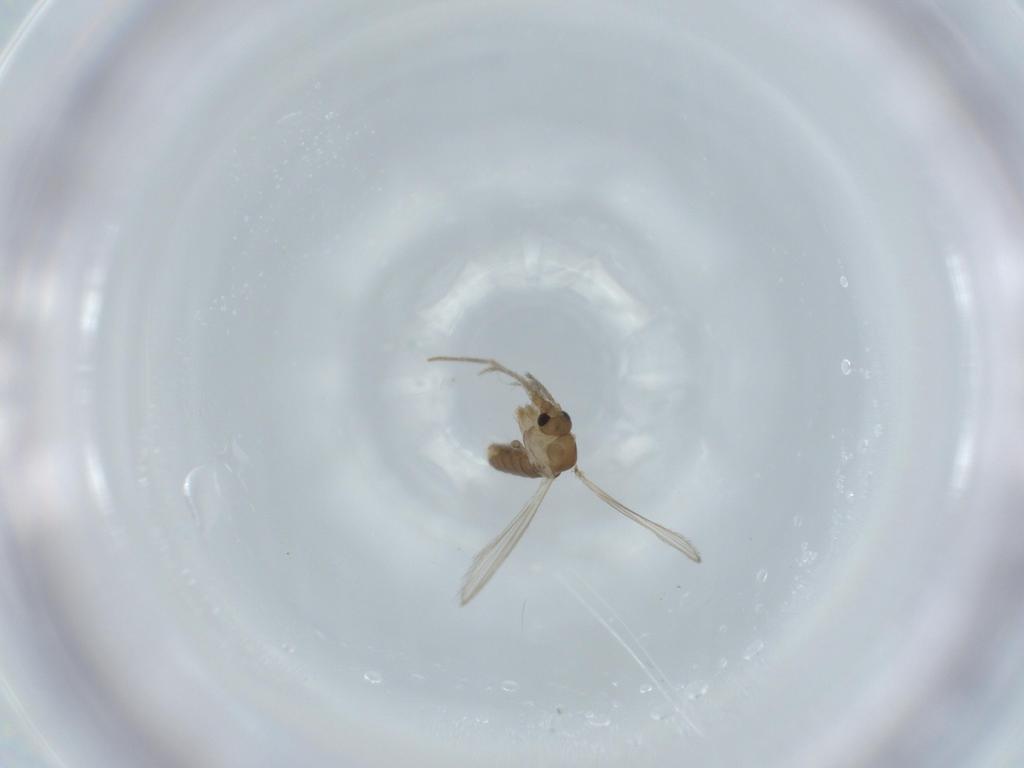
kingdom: Animalia
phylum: Arthropoda
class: Insecta
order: Diptera
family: Psychodidae
